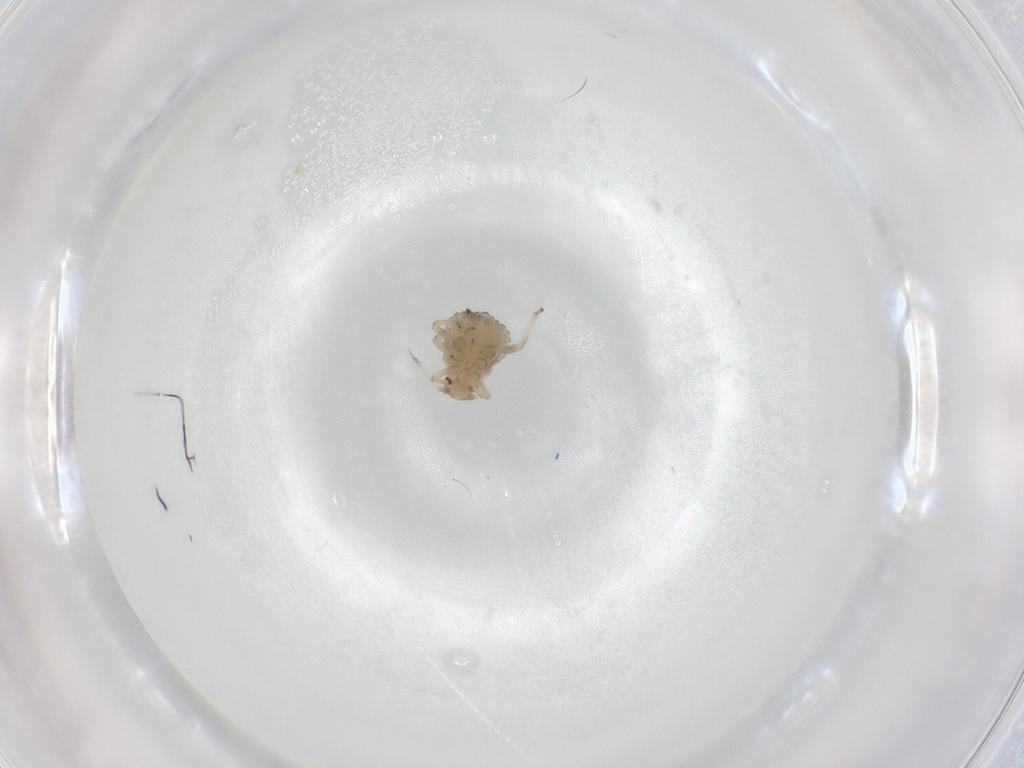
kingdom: Animalia
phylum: Arthropoda
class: Insecta
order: Hemiptera
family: Aphididae
